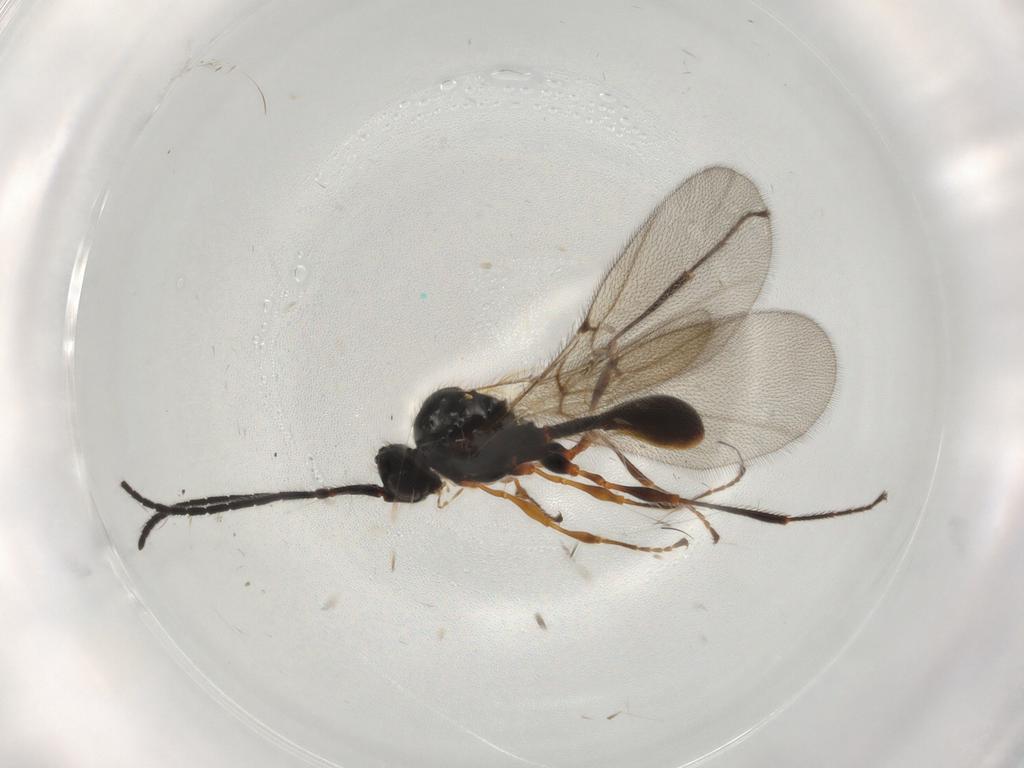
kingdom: Animalia
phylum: Arthropoda
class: Insecta
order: Hymenoptera
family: Diapriidae
